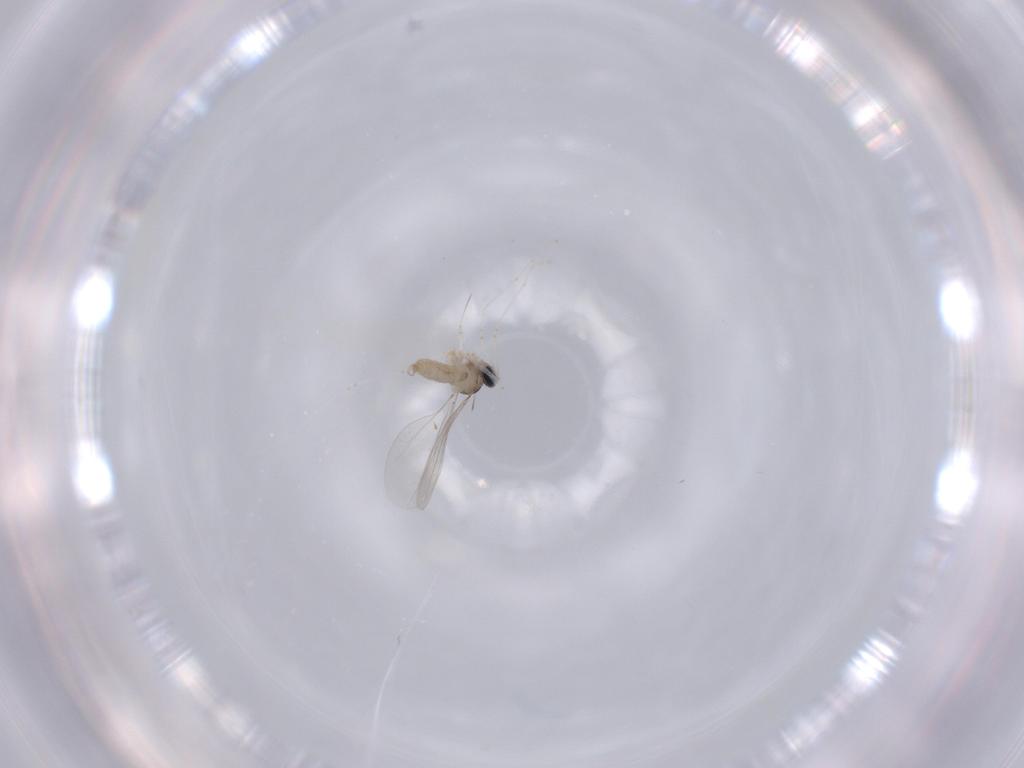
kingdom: Animalia
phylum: Arthropoda
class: Insecta
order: Diptera
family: Cecidomyiidae
